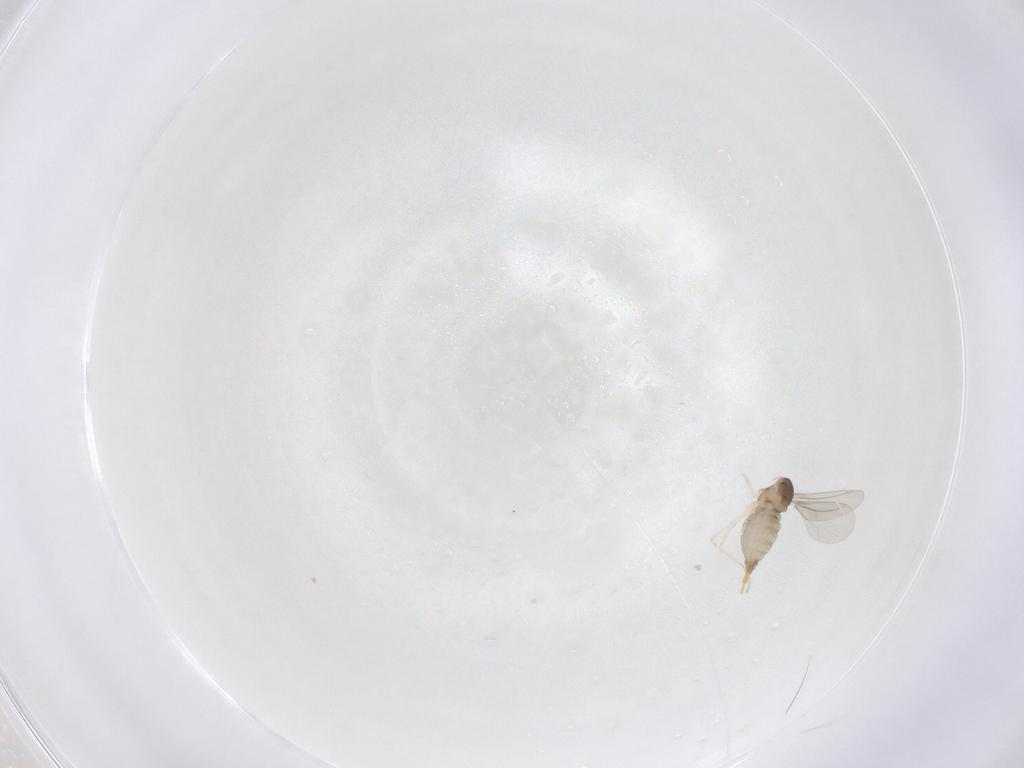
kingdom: Animalia
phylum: Arthropoda
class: Insecta
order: Diptera
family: Cecidomyiidae
